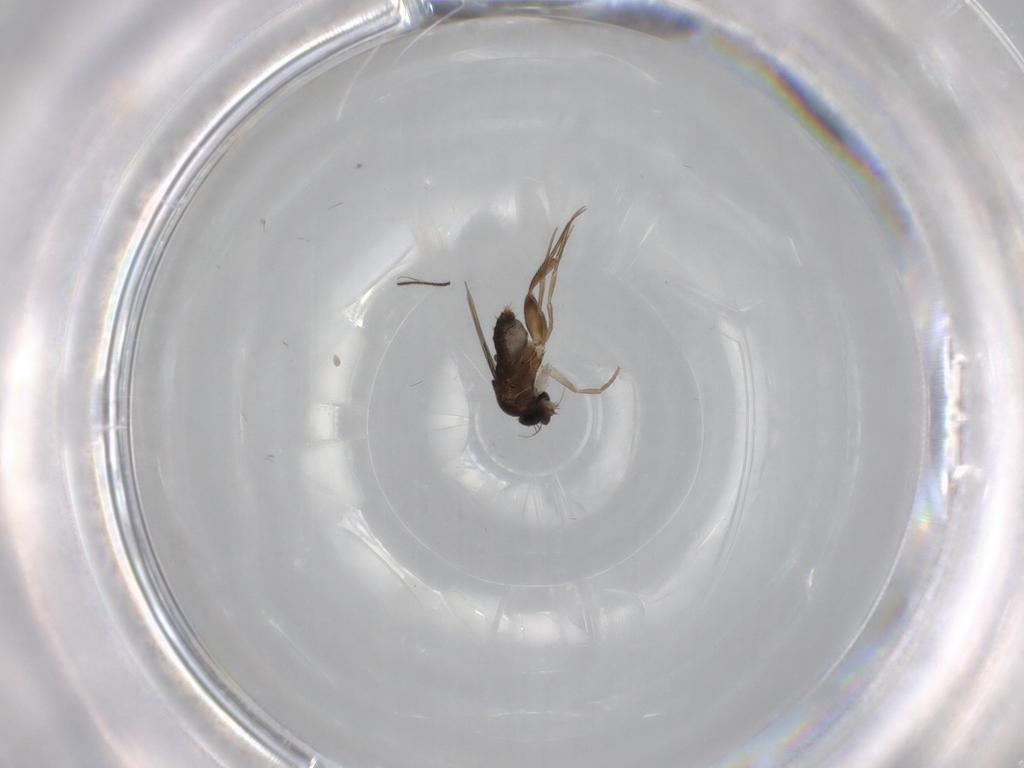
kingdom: Animalia
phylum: Arthropoda
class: Insecta
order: Diptera
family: Phoridae
